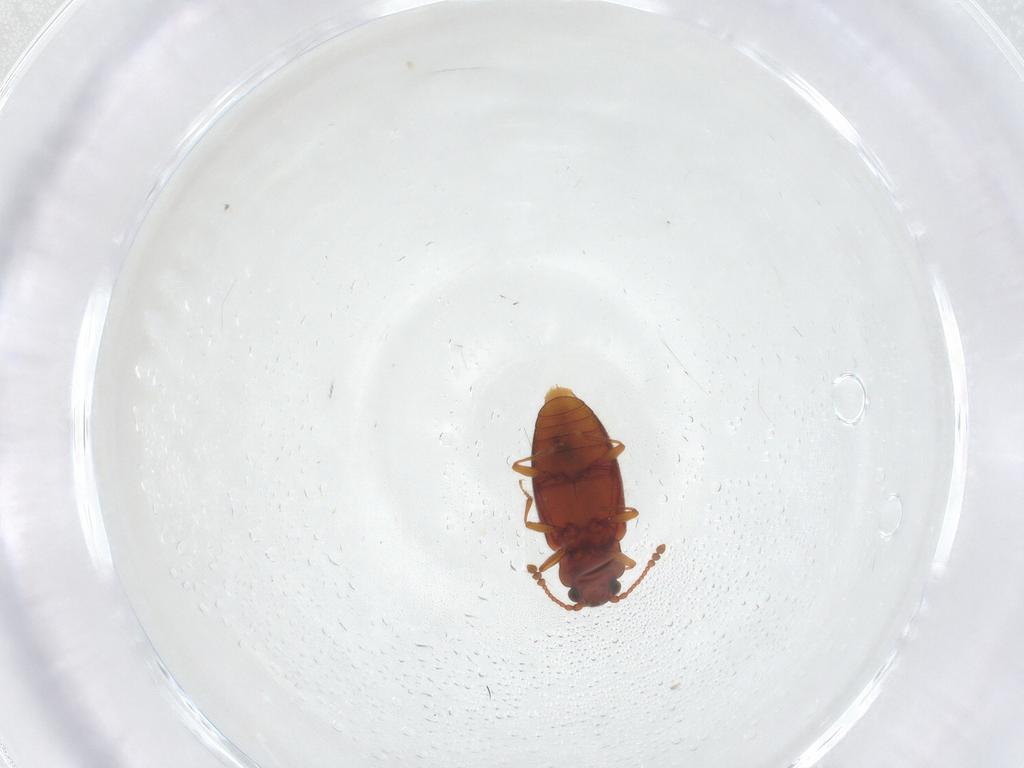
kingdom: Animalia
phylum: Arthropoda
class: Insecta
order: Coleoptera
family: Cryptophagidae
